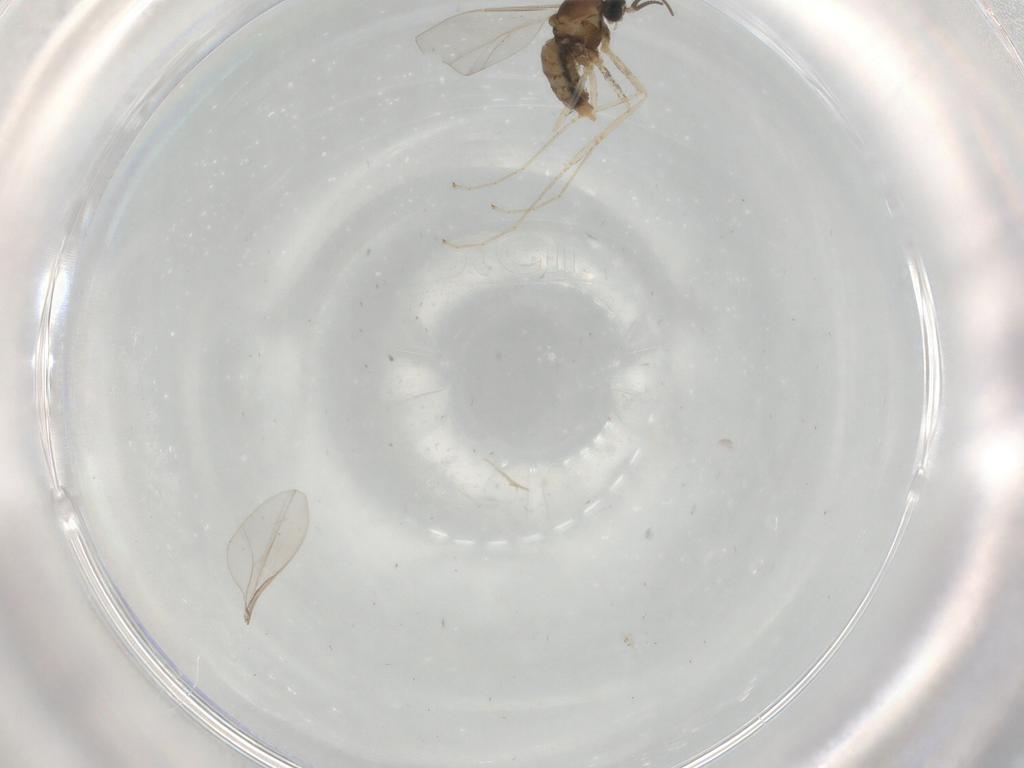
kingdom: Animalia
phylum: Arthropoda
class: Insecta
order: Diptera
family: Cecidomyiidae
